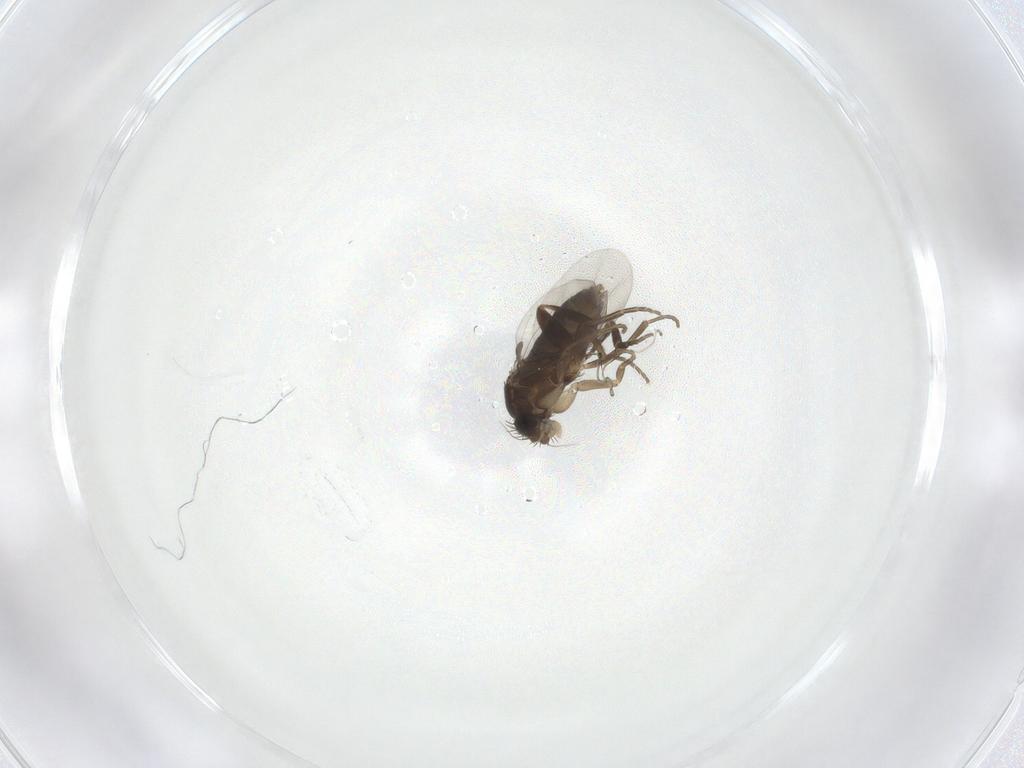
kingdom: Animalia
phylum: Arthropoda
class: Insecta
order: Diptera
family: Phoridae
